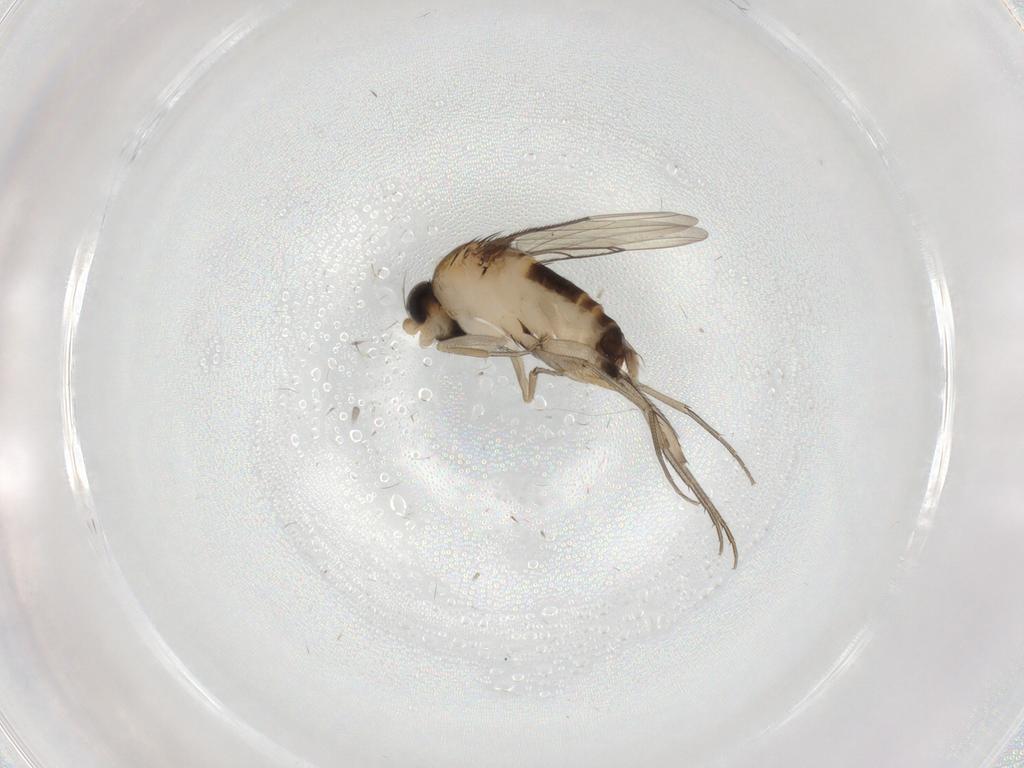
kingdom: Animalia
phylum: Arthropoda
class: Insecta
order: Diptera
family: Phoridae
